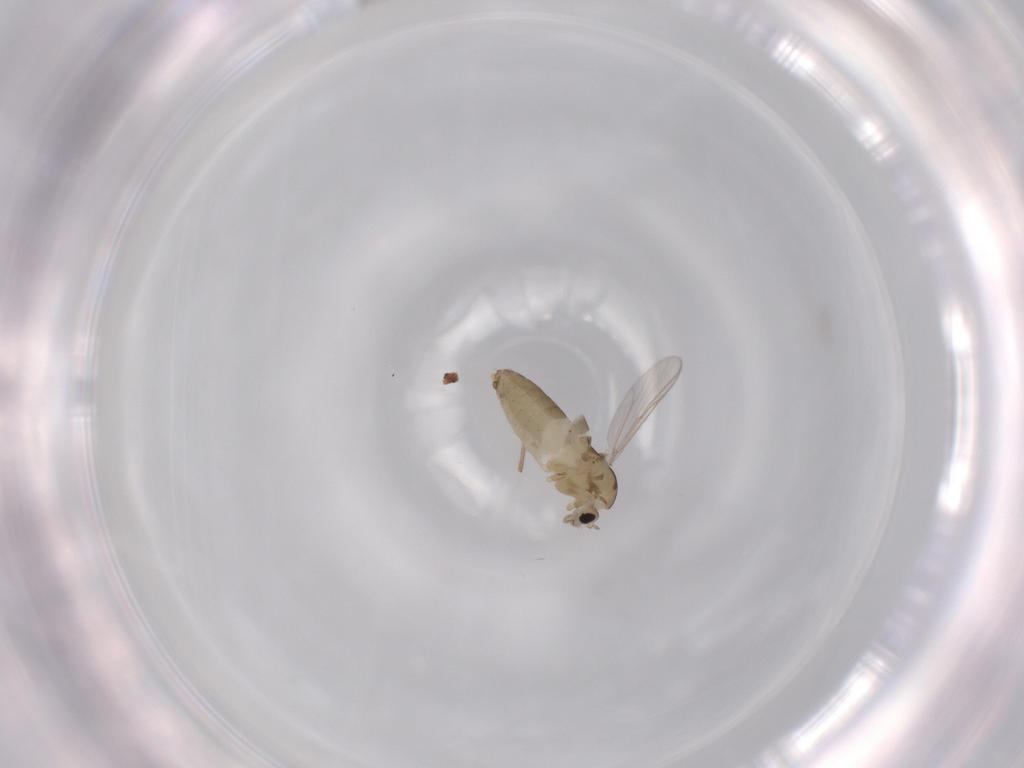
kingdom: Animalia
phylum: Arthropoda
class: Insecta
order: Diptera
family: Chironomidae
